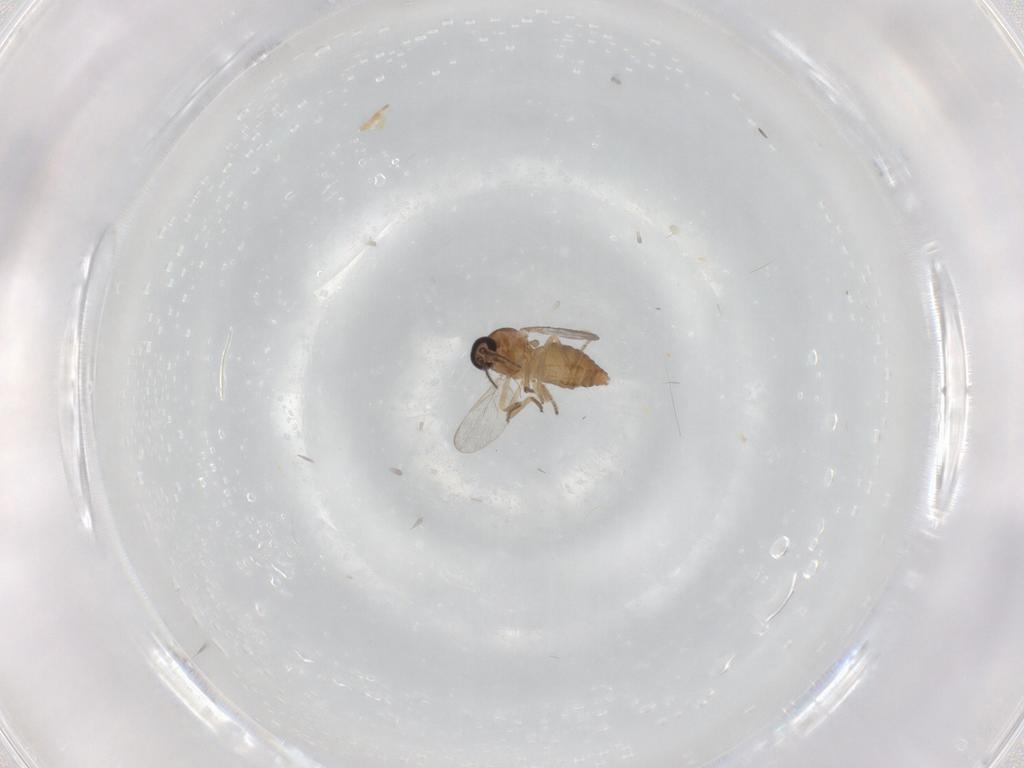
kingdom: Animalia
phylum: Arthropoda
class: Insecta
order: Diptera
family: Ceratopogonidae
